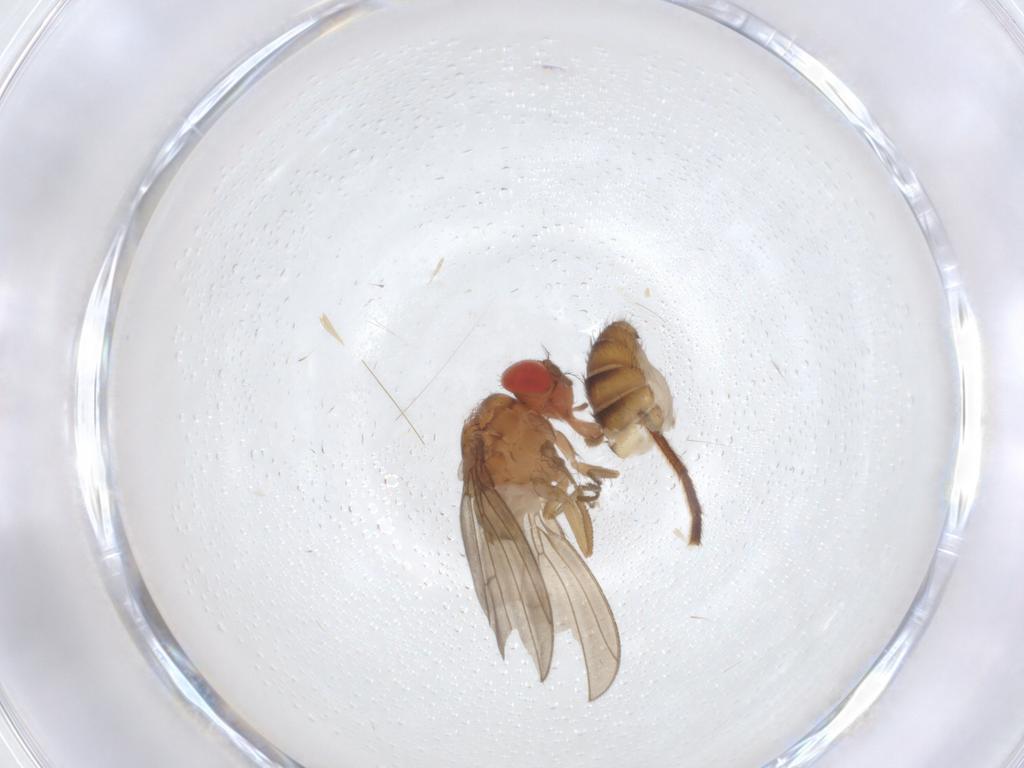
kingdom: Animalia
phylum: Arthropoda
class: Insecta
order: Diptera
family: Drosophilidae
